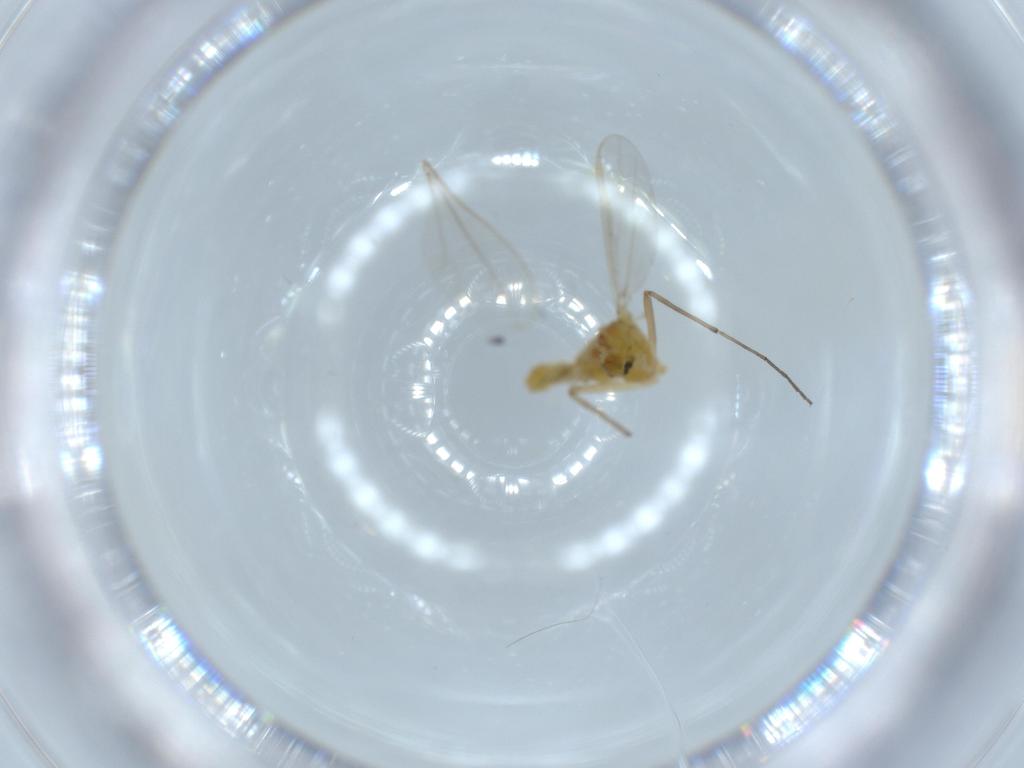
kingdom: Animalia
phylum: Arthropoda
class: Insecta
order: Diptera
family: Chironomidae
